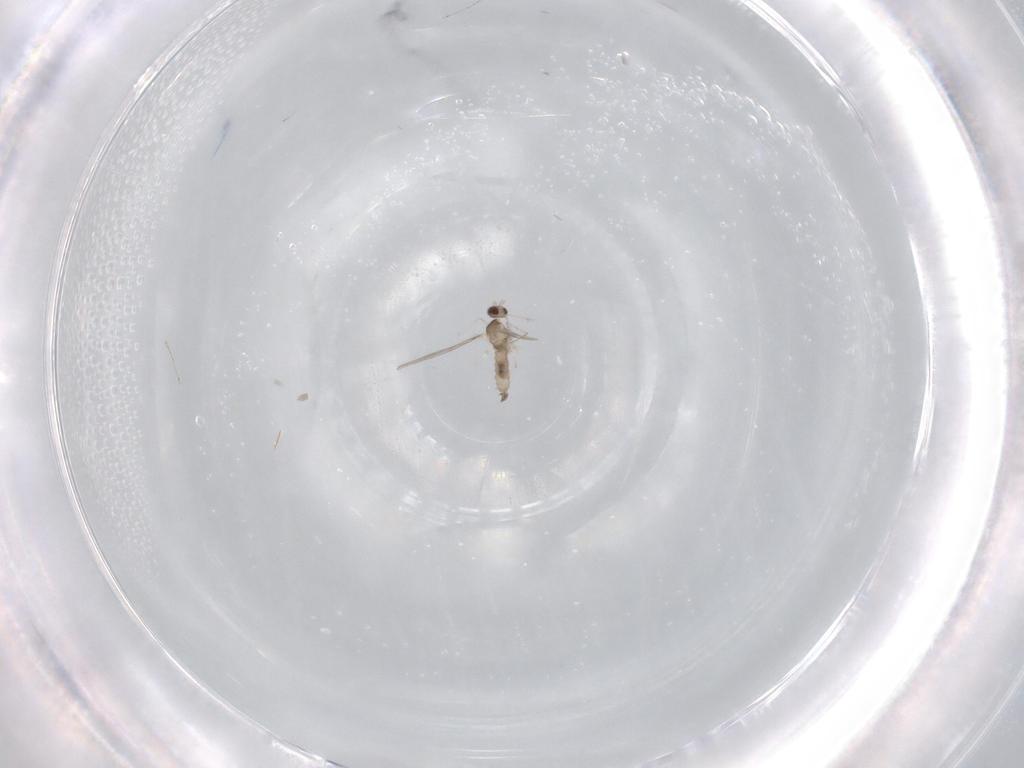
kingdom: Animalia
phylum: Arthropoda
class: Insecta
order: Diptera
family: Cecidomyiidae
